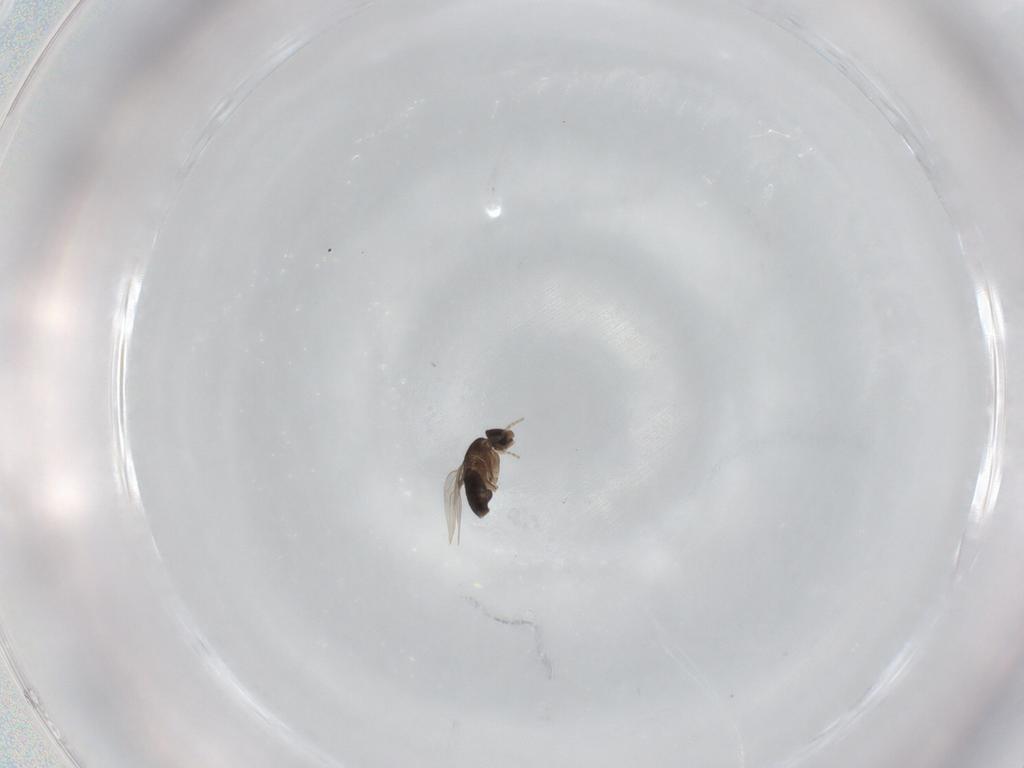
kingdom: Animalia
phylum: Arthropoda
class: Insecta
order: Diptera
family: Phoridae
